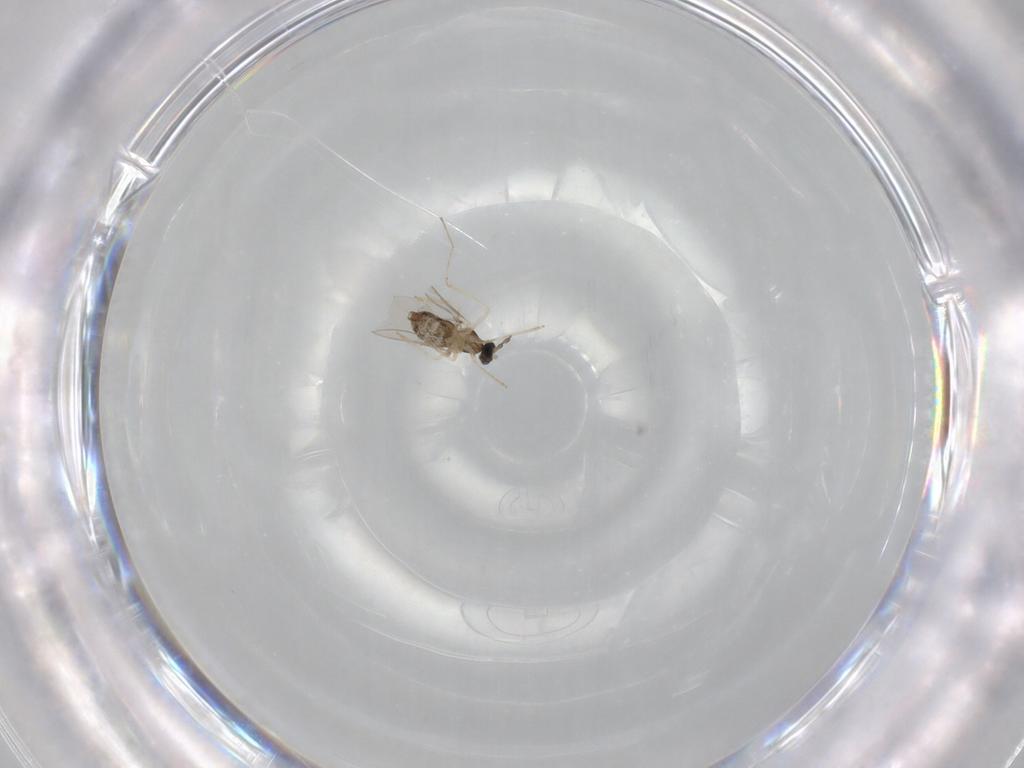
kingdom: Animalia
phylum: Arthropoda
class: Insecta
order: Diptera
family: Cecidomyiidae
